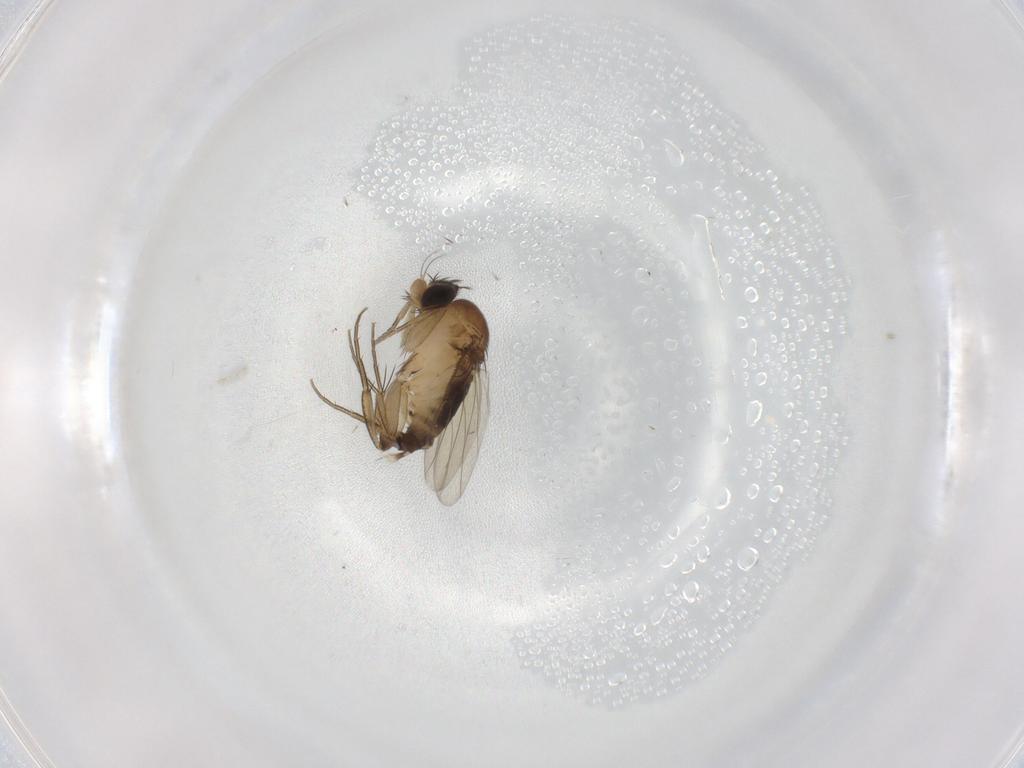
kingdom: Animalia
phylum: Arthropoda
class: Insecta
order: Diptera
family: Phoridae
